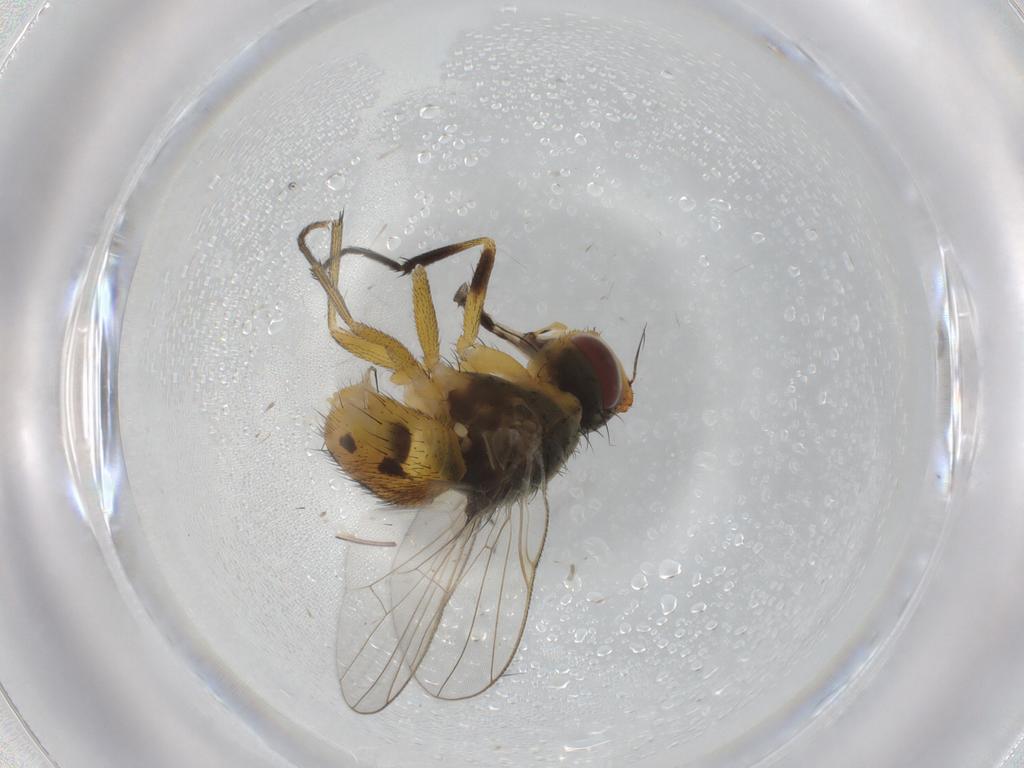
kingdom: Animalia
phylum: Arthropoda
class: Insecta
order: Diptera
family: Muscidae
